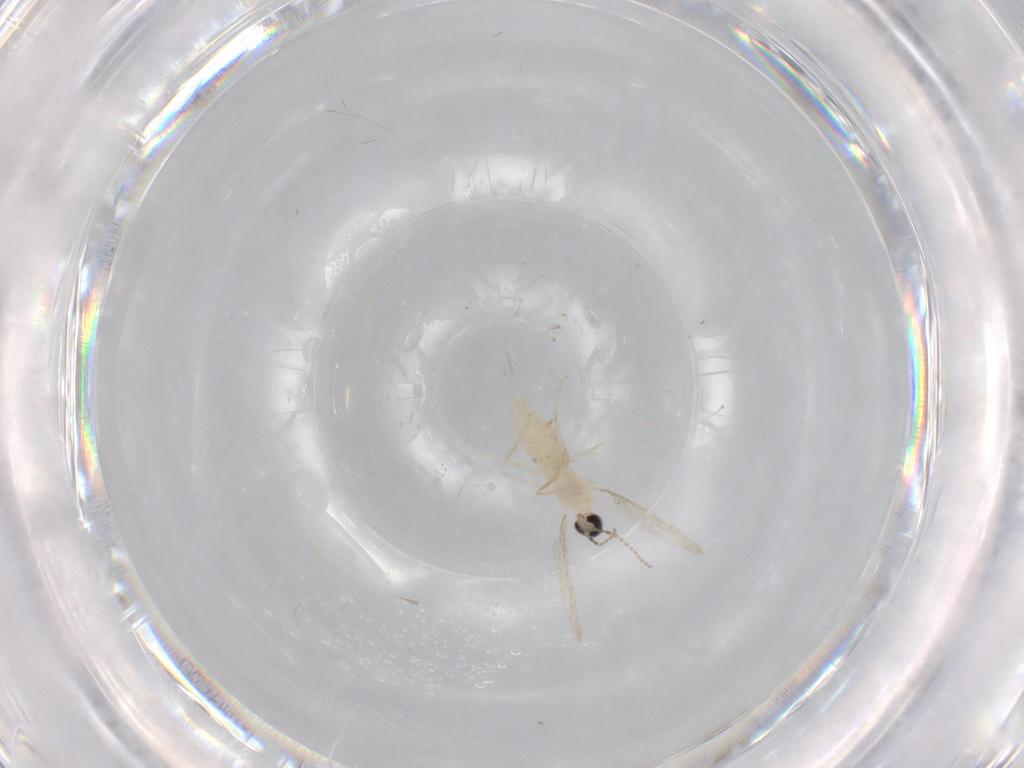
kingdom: Animalia
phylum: Arthropoda
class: Insecta
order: Diptera
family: Cecidomyiidae
